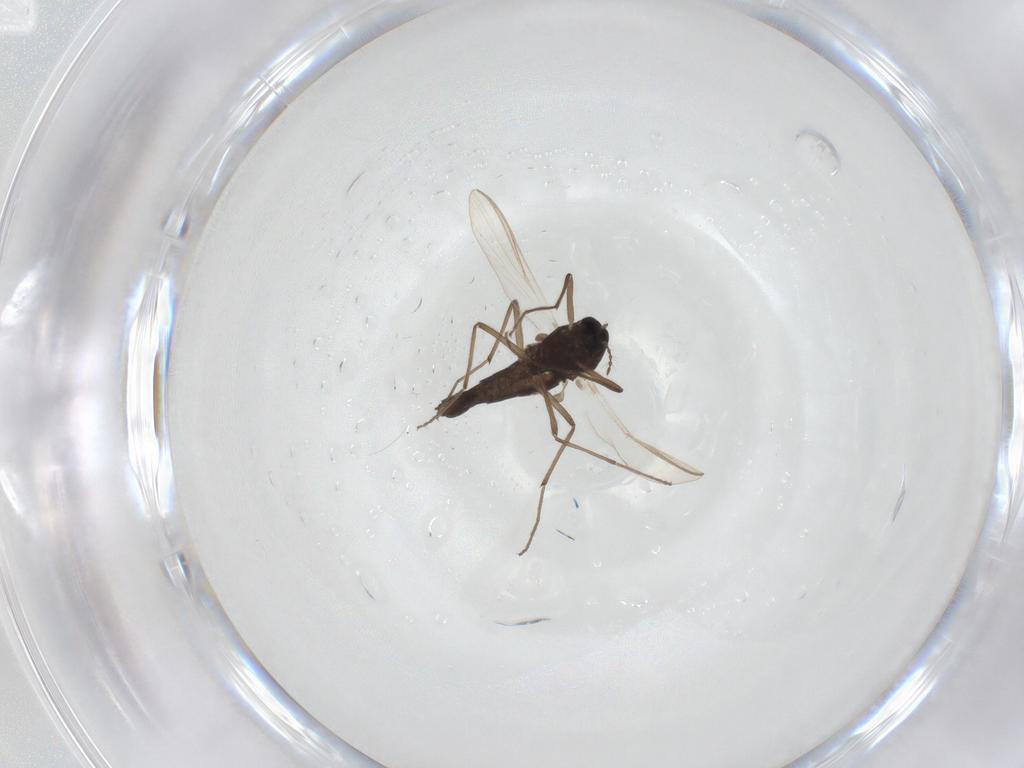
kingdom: Animalia
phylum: Arthropoda
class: Insecta
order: Diptera
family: Chironomidae
